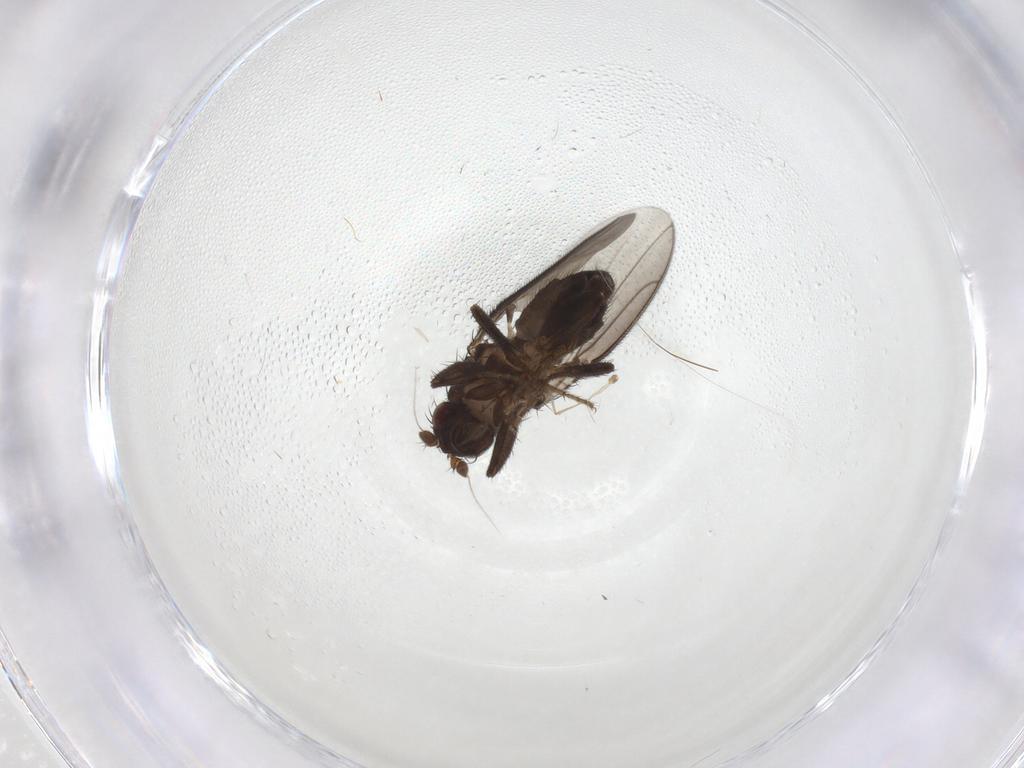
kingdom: Animalia
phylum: Arthropoda
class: Insecta
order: Diptera
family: Sphaeroceridae
